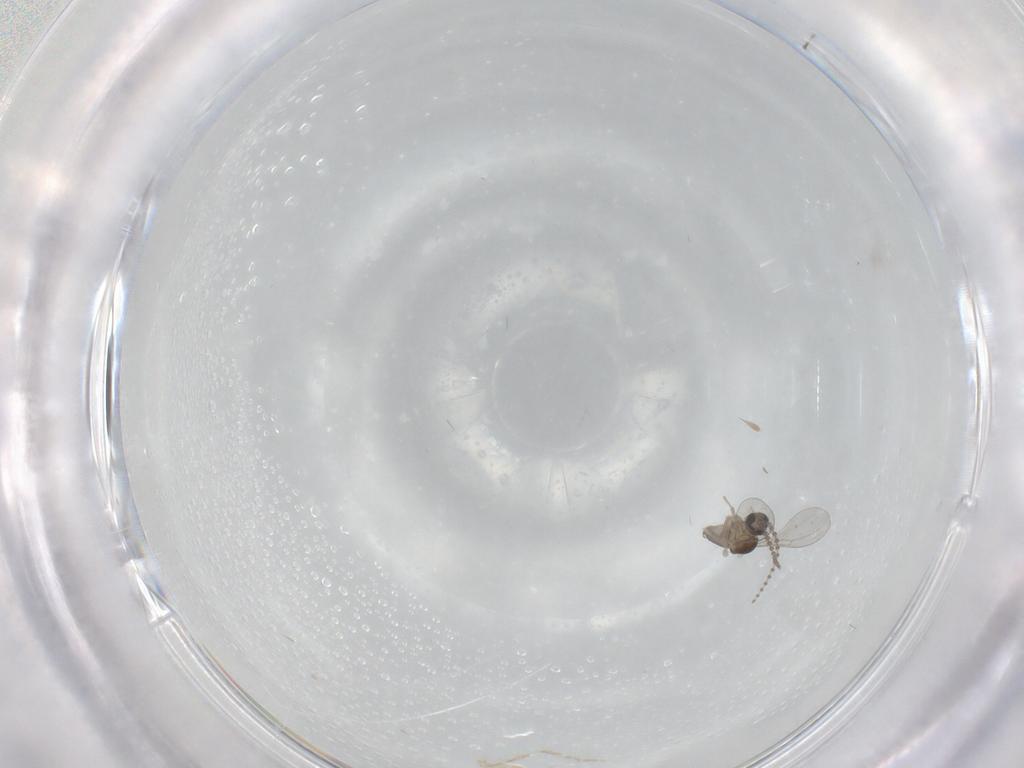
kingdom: Animalia
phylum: Arthropoda
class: Insecta
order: Diptera
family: Cecidomyiidae
